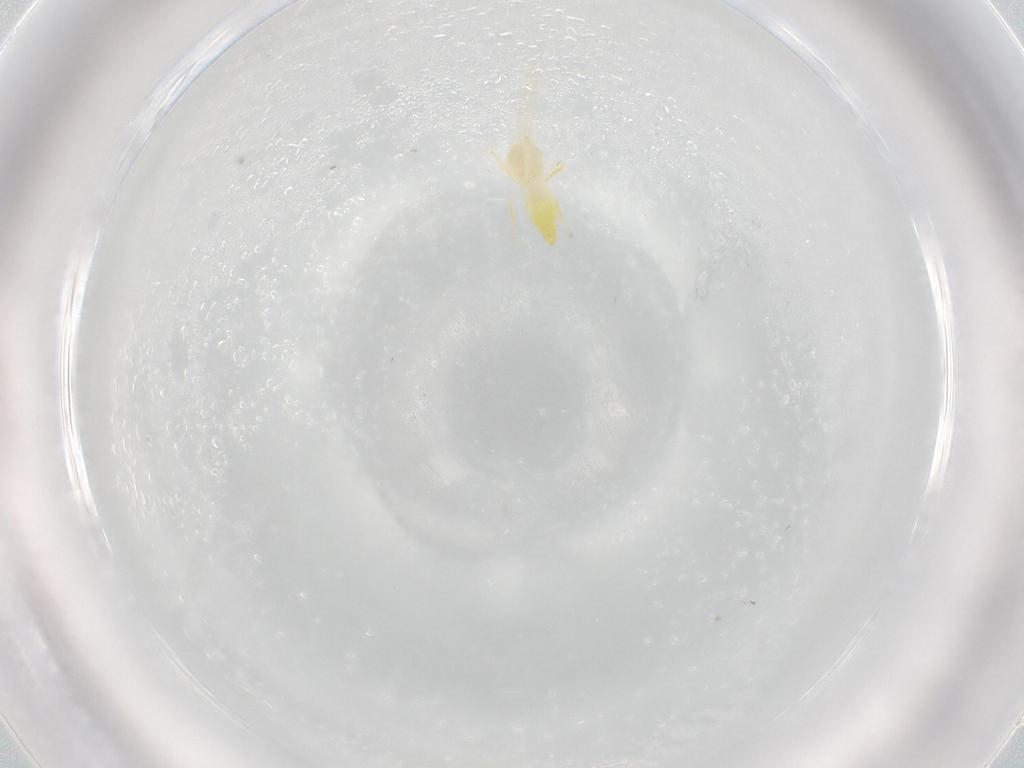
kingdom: Animalia
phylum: Arthropoda
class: Insecta
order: Hemiptera
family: Aleyrodidae
